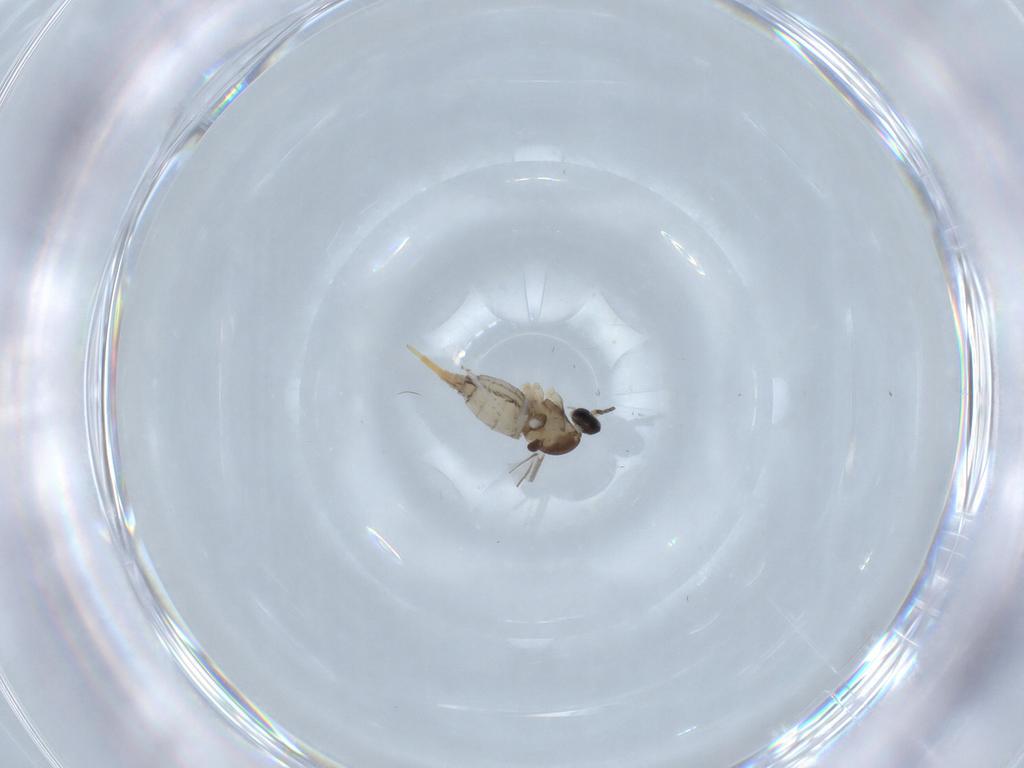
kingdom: Animalia
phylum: Arthropoda
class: Insecta
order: Diptera
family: Cecidomyiidae
